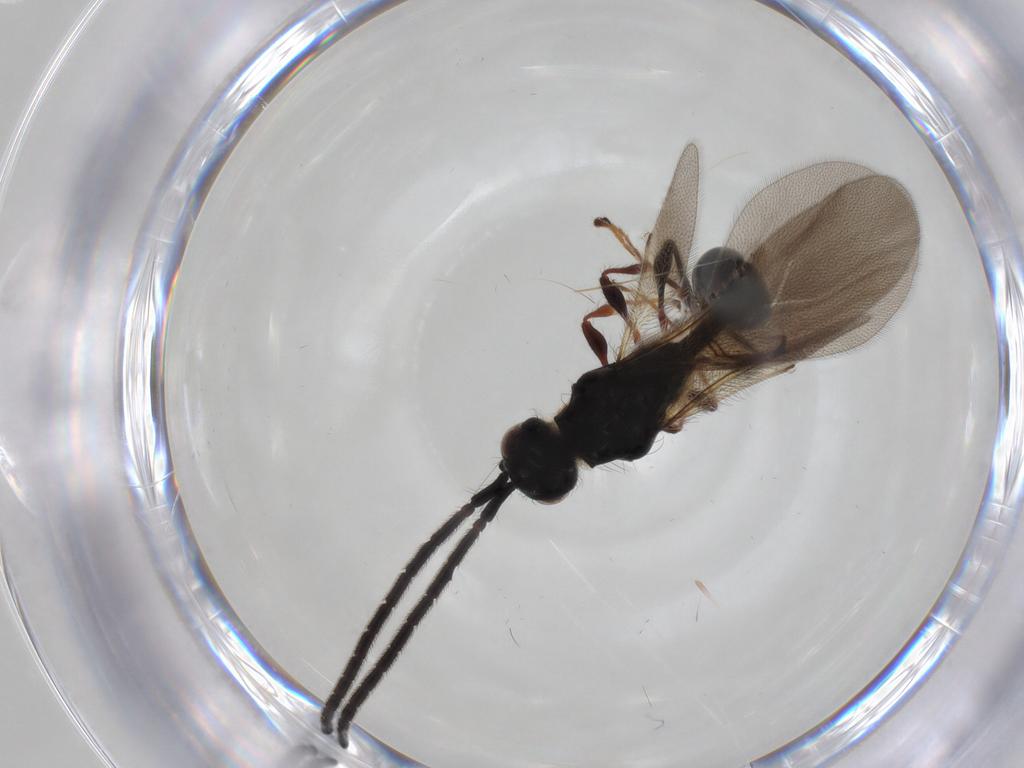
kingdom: Animalia
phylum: Arthropoda
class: Insecta
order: Hymenoptera
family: Diapriidae
